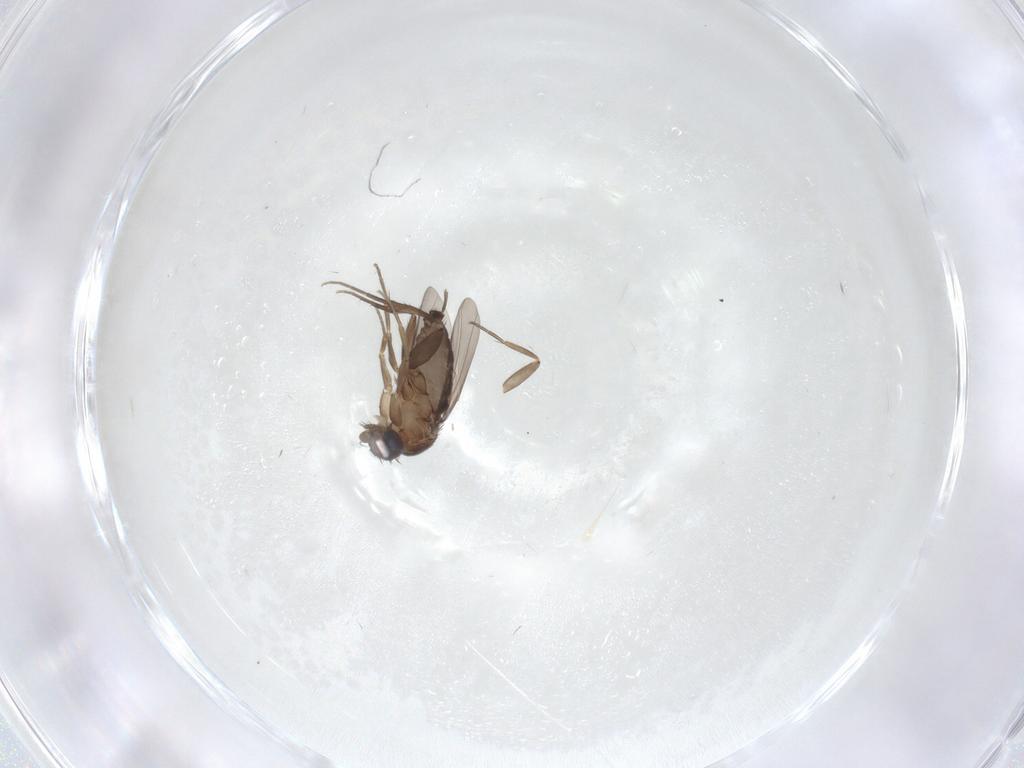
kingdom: Animalia
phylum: Arthropoda
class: Insecta
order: Diptera
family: Phoridae
